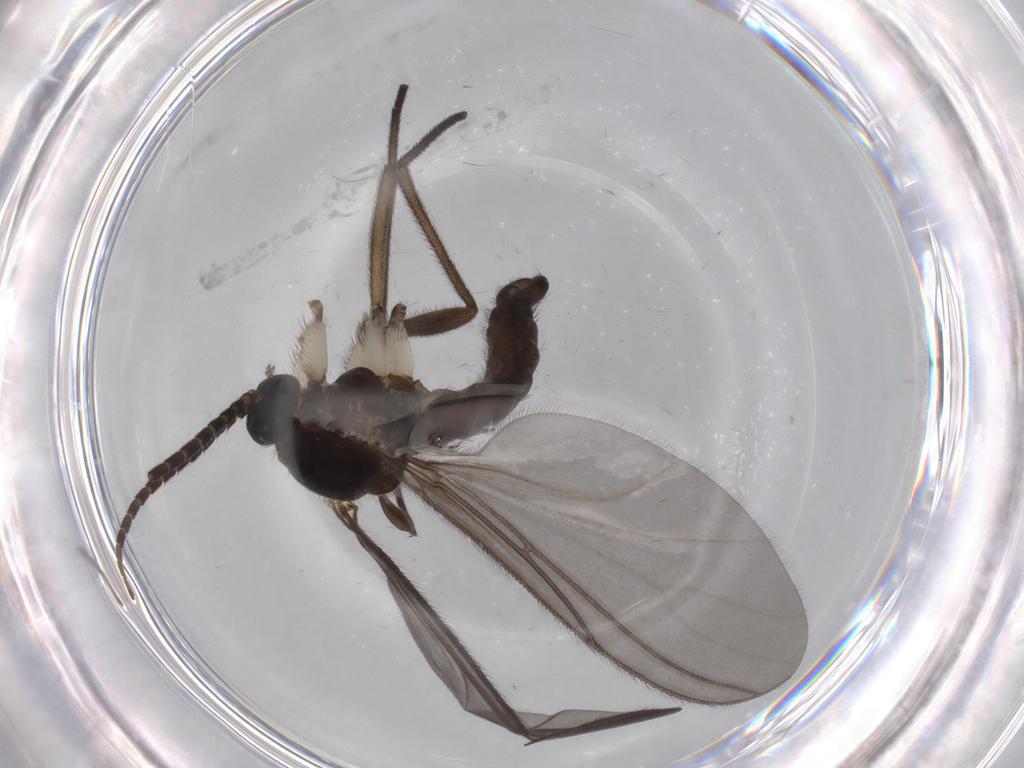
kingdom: Animalia
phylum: Arthropoda
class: Insecta
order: Diptera
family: Sciaridae
